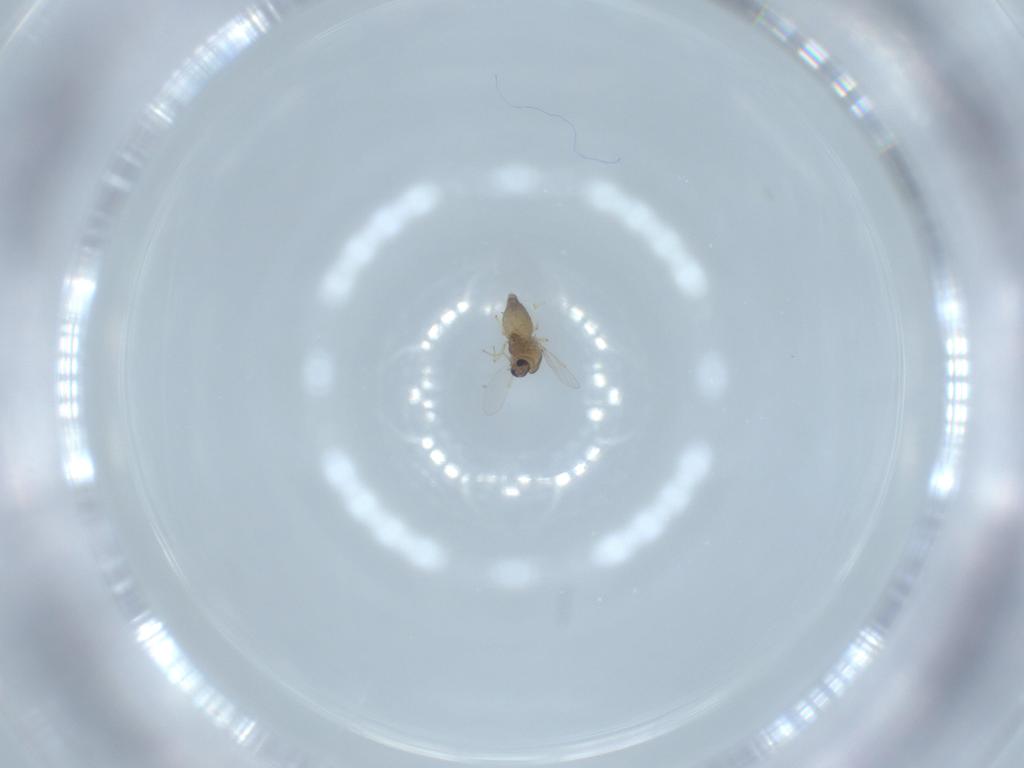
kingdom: Animalia
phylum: Arthropoda
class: Insecta
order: Diptera
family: Chironomidae
